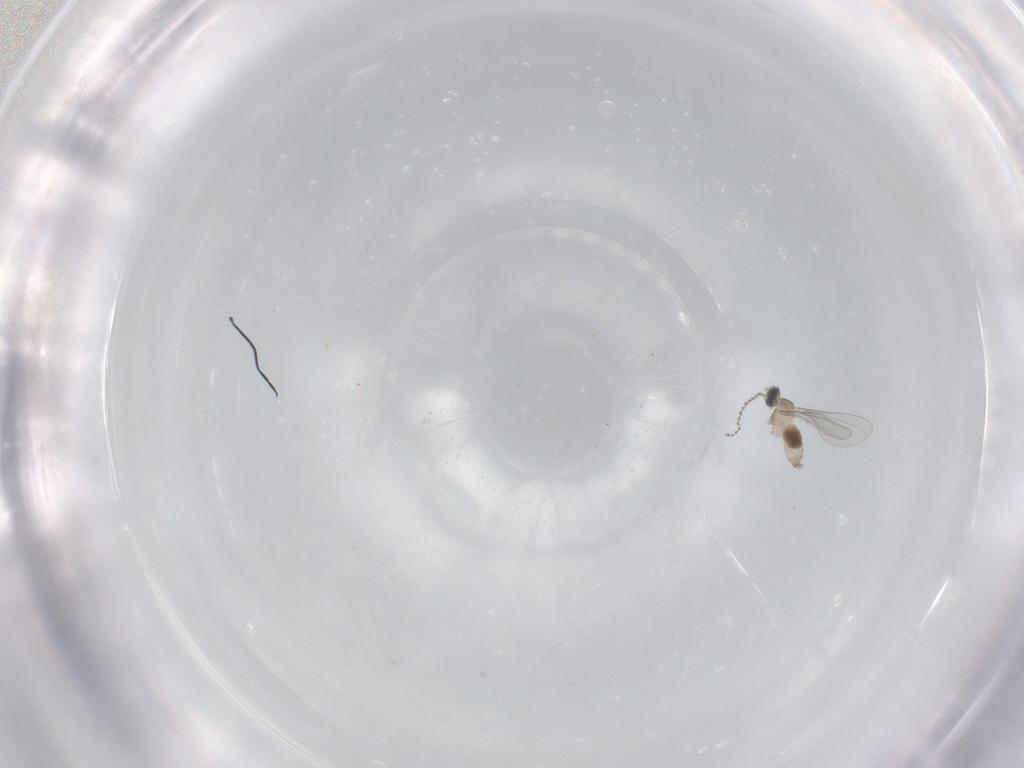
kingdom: Animalia
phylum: Arthropoda
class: Insecta
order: Diptera
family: Cecidomyiidae
